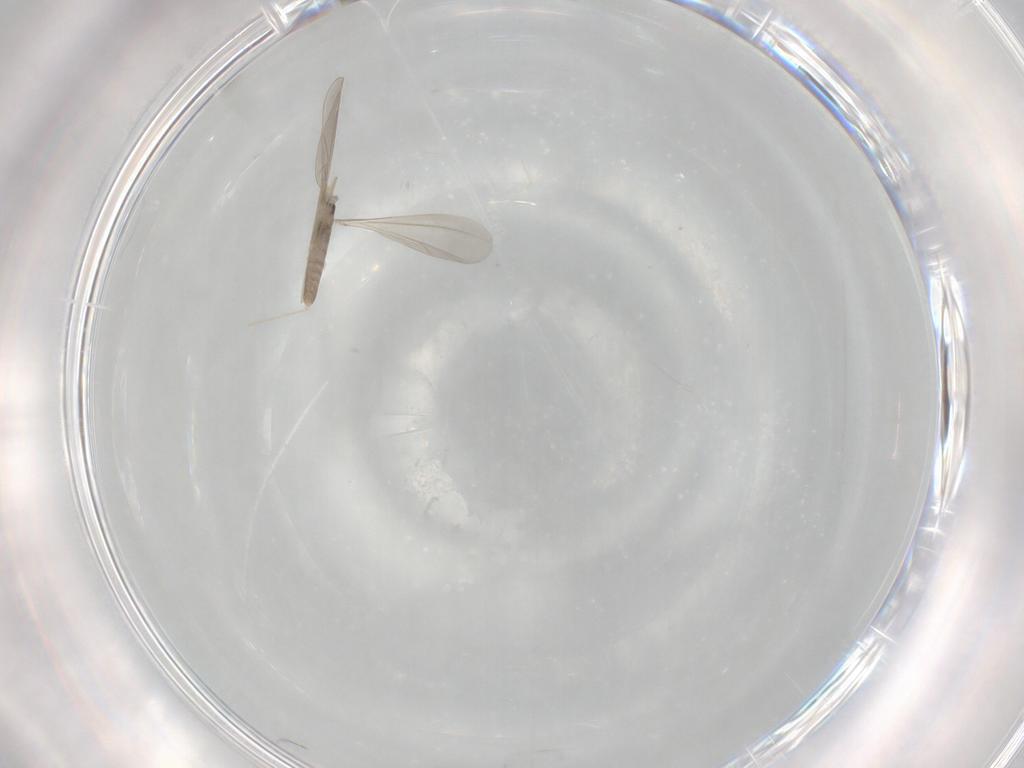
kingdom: Animalia
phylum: Arthropoda
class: Insecta
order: Diptera
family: Cecidomyiidae
